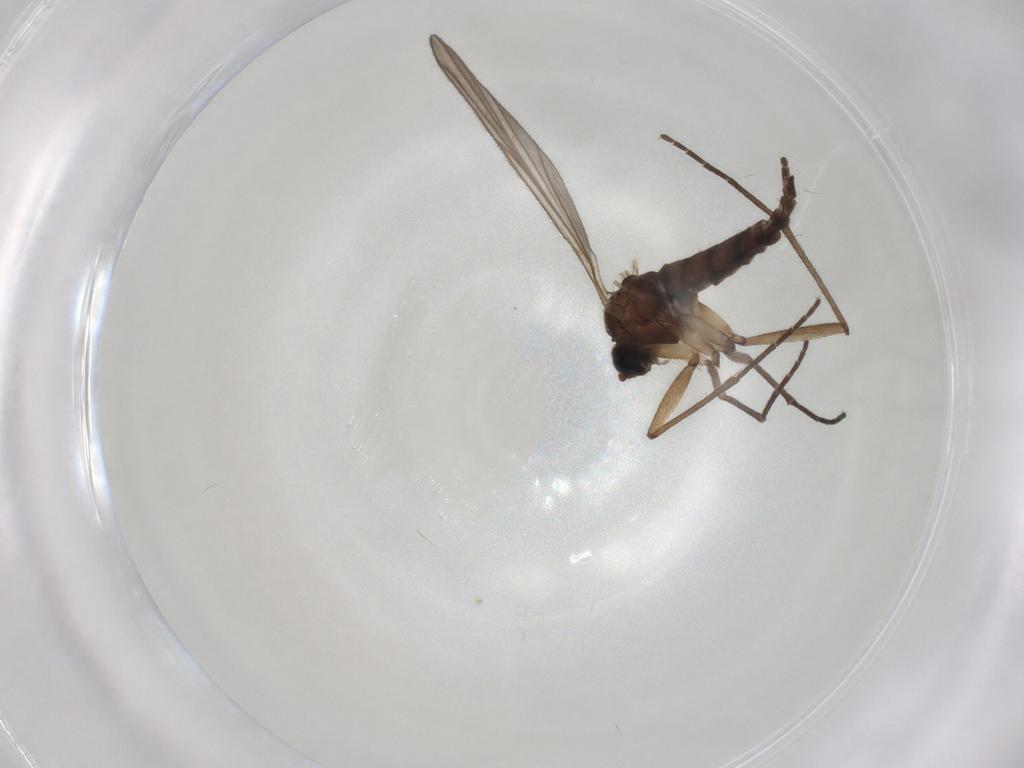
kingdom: Animalia
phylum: Arthropoda
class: Insecta
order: Diptera
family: Sciaridae
